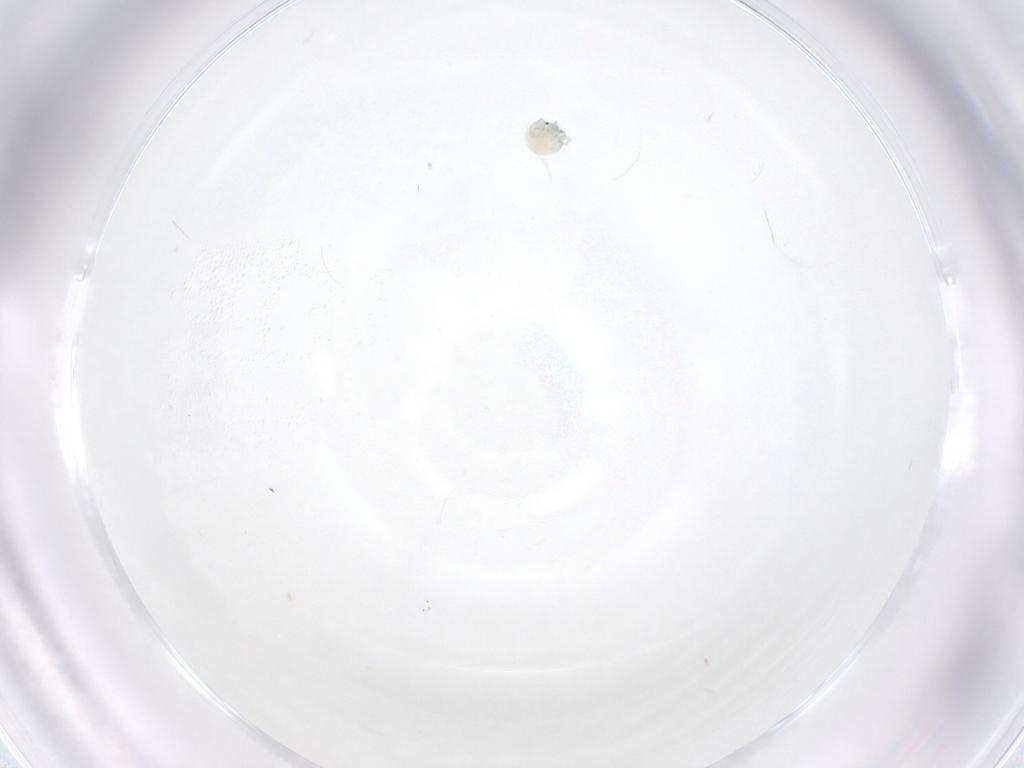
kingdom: Animalia
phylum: Arthropoda
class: Arachnida
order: Trombidiformes
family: Arrenuridae
